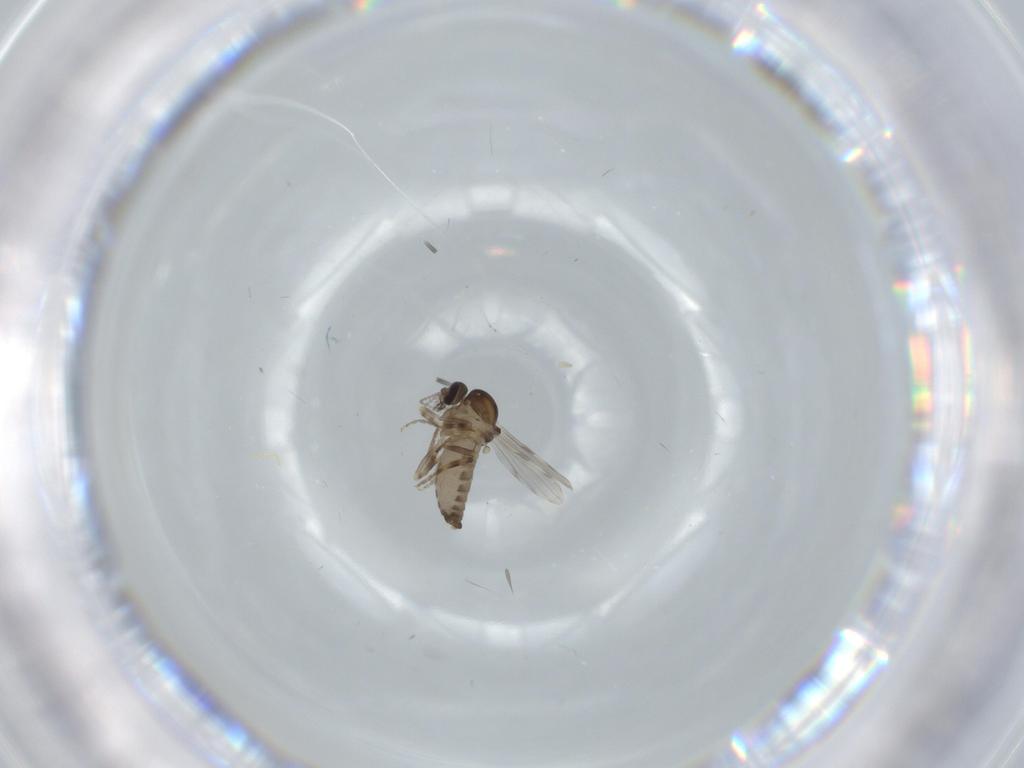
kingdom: Animalia
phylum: Arthropoda
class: Insecta
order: Diptera
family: Ceratopogonidae
